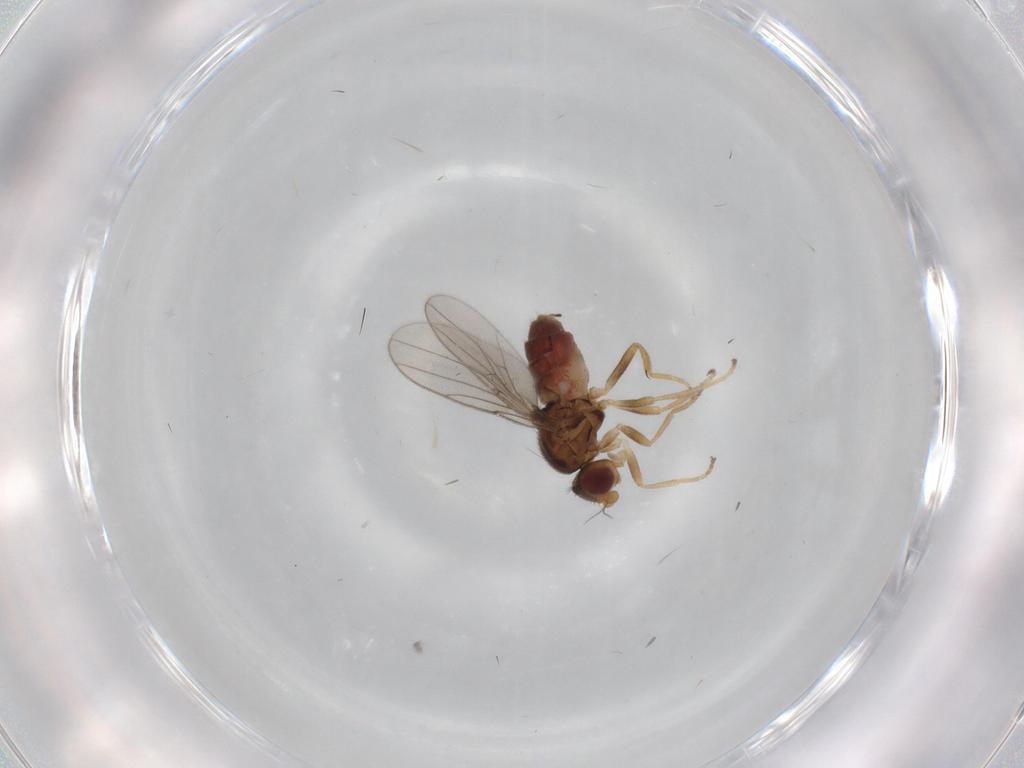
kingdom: Animalia
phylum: Arthropoda
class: Insecta
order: Diptera
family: Chloropidae
